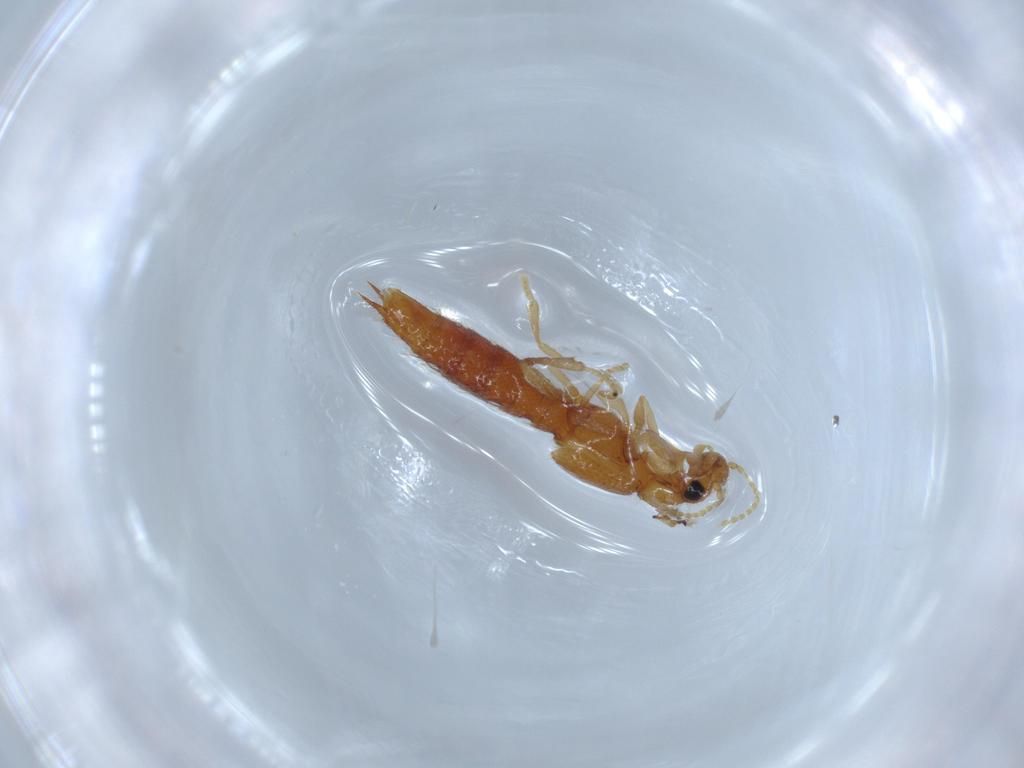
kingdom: Animalia
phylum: Arthropoda
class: Insecta
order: Coleoptera
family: Staphylinidae
